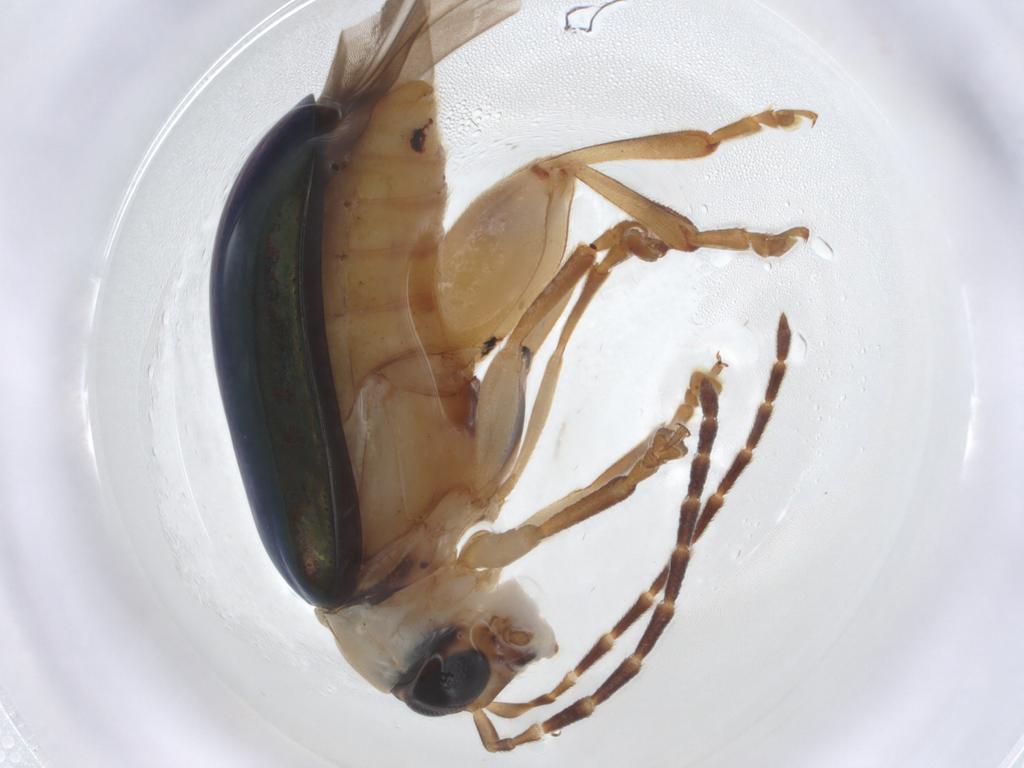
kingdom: Animalia
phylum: Arthropoda
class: Insecta
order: Coleoptera
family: Chrysomelidae
